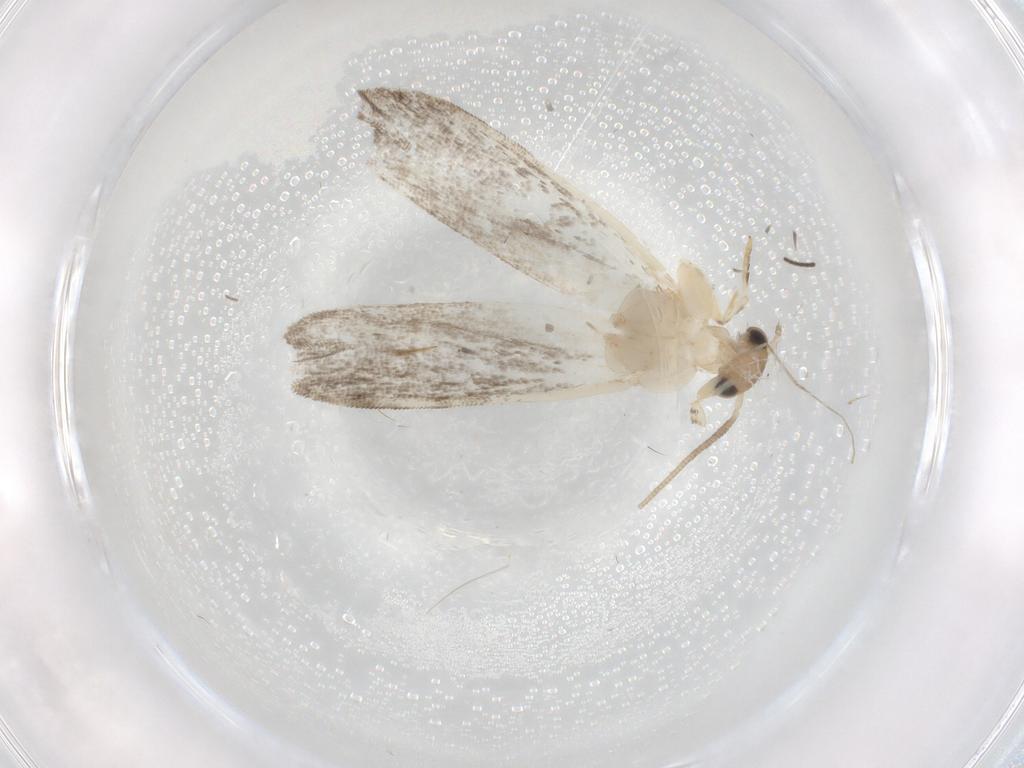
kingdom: Animalia
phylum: Arthropoda
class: Insecta
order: Lepidoptera
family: Dryadaulidae
